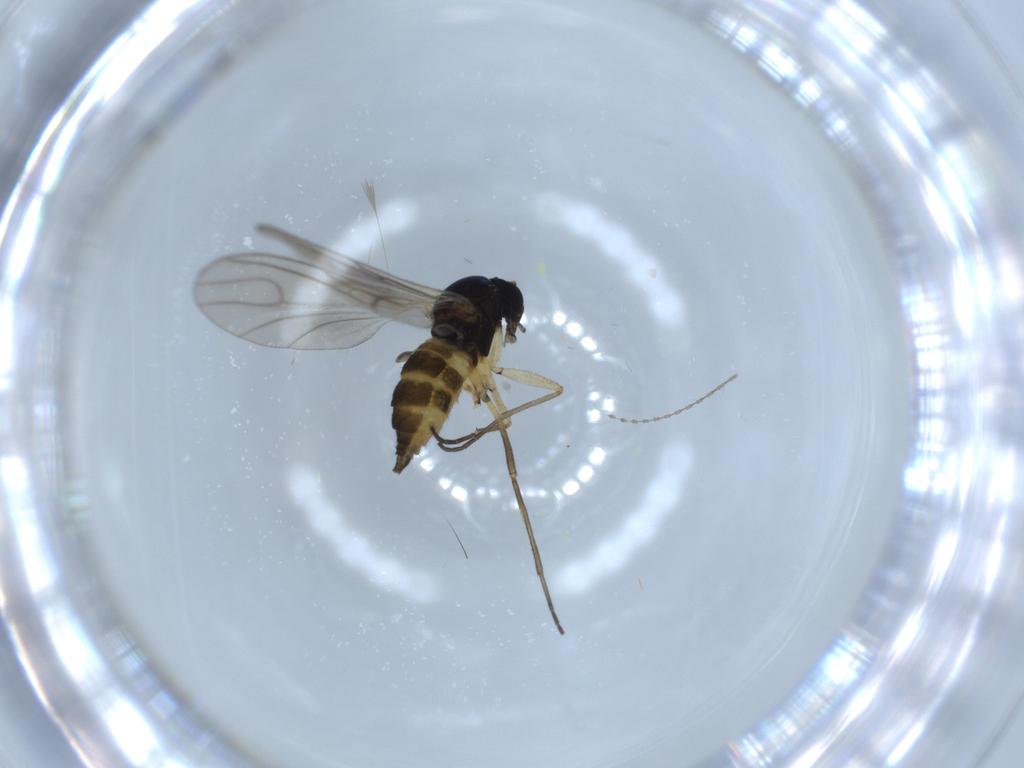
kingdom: Animalia
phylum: Arthropoda
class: Insecta
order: Diptera
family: Sciaridae
